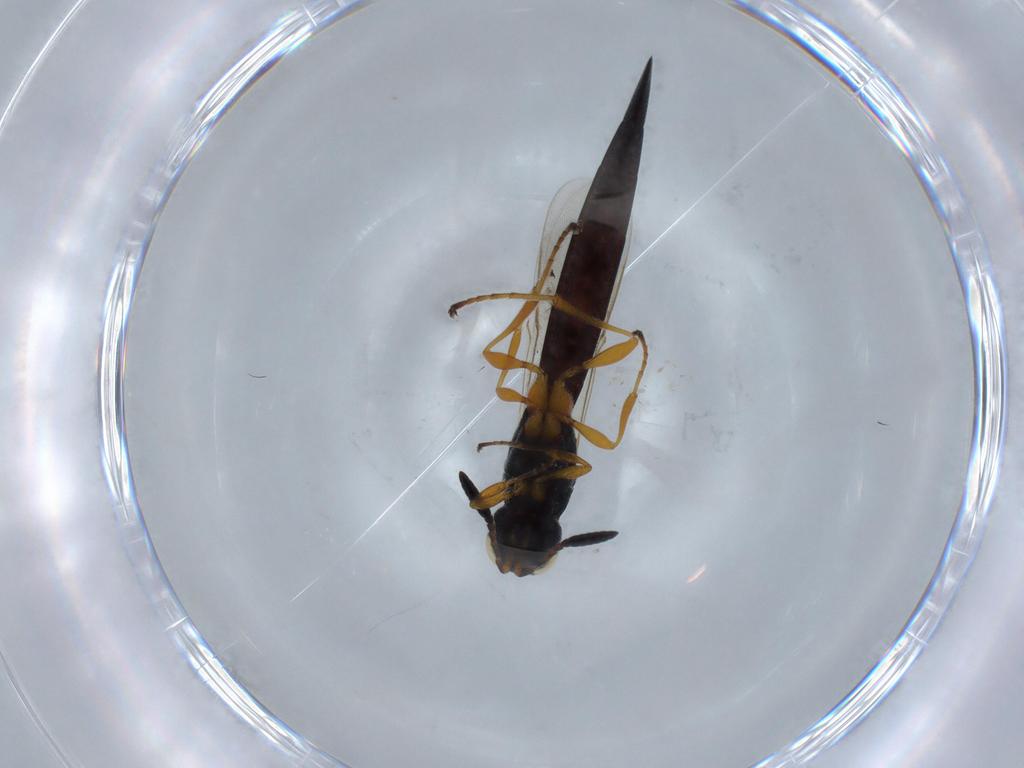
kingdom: Animalia
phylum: Arthropoda
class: Insecta
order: Hymenoptera
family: Scelionidae
